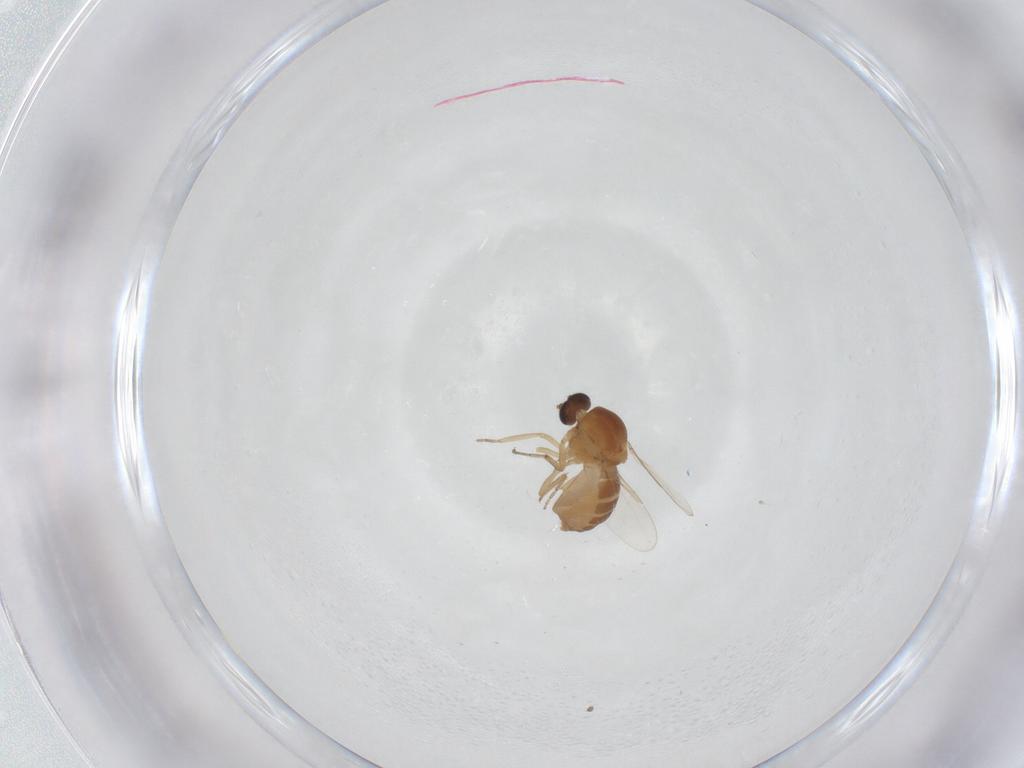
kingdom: Animalia
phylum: Arthropoda
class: Insecta
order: Diptera
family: Ceratopogonidae
